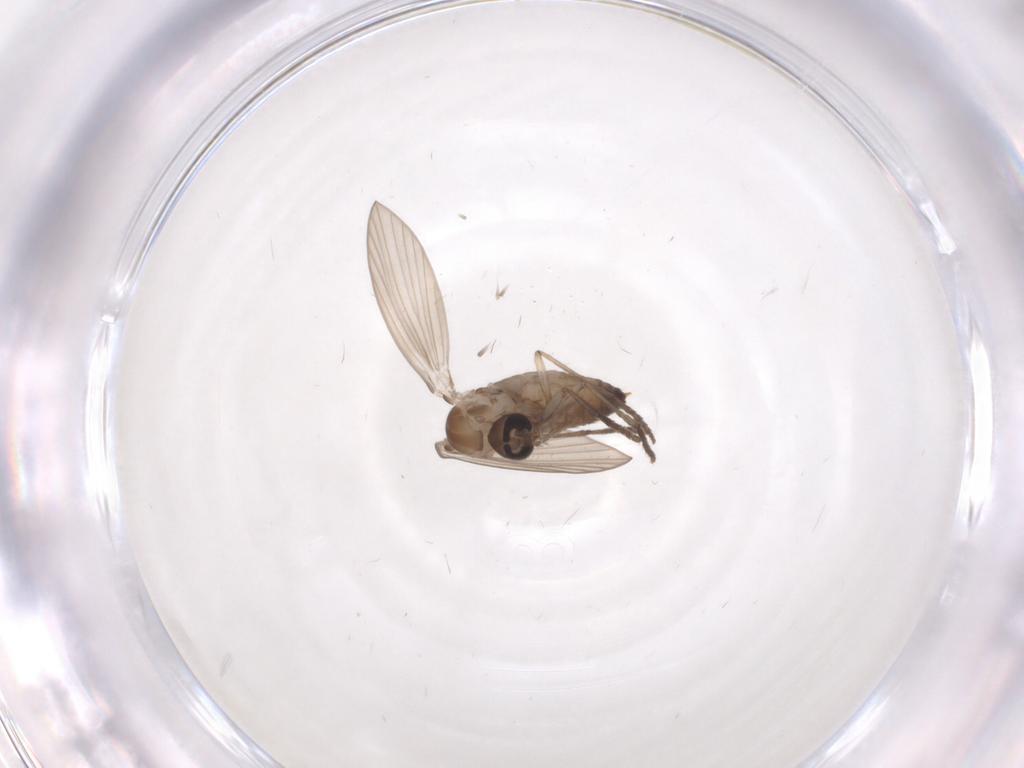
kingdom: Animalia
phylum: Arthropoda
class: Insecta
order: Diptera
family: Psychodidae
